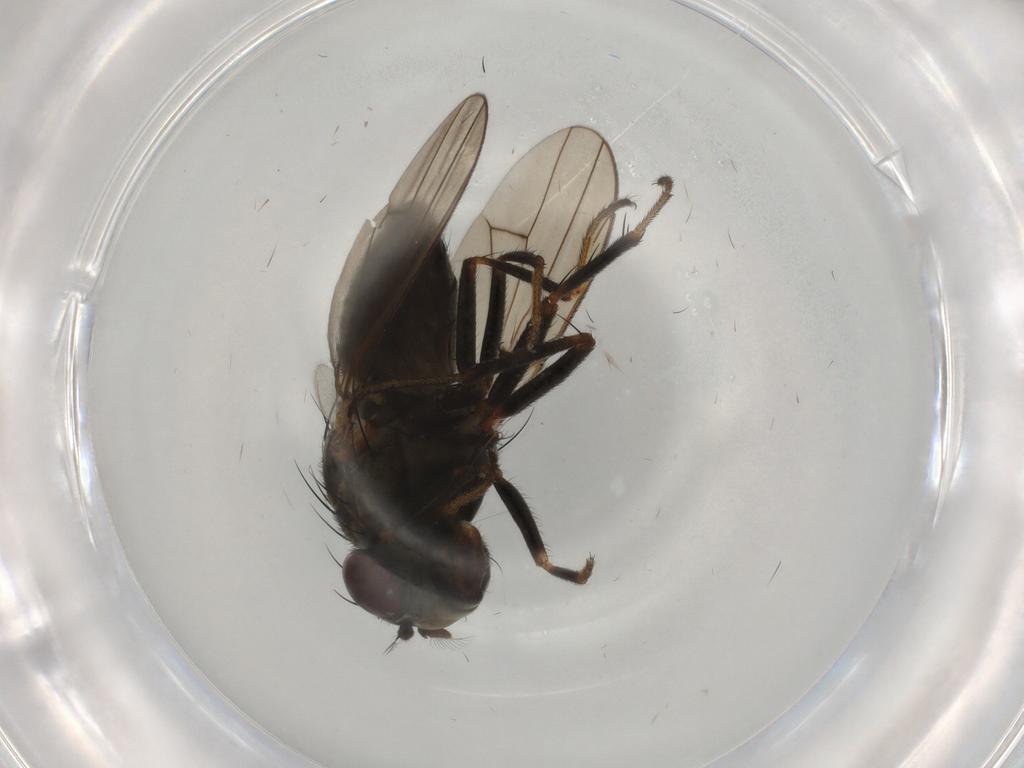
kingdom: Animalia
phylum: Arthropoda
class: Insecta
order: Diptera
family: Ephydridae
